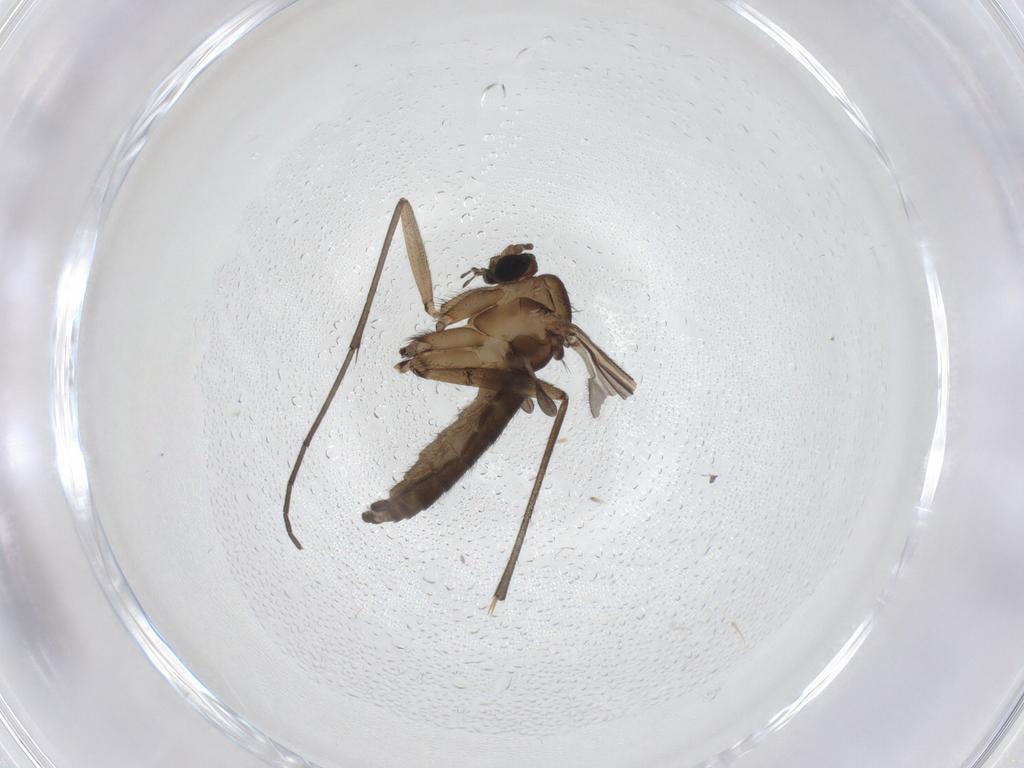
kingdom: Animalia
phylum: Arthropoda
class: Insecta
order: Diptera
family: Sciaridae
